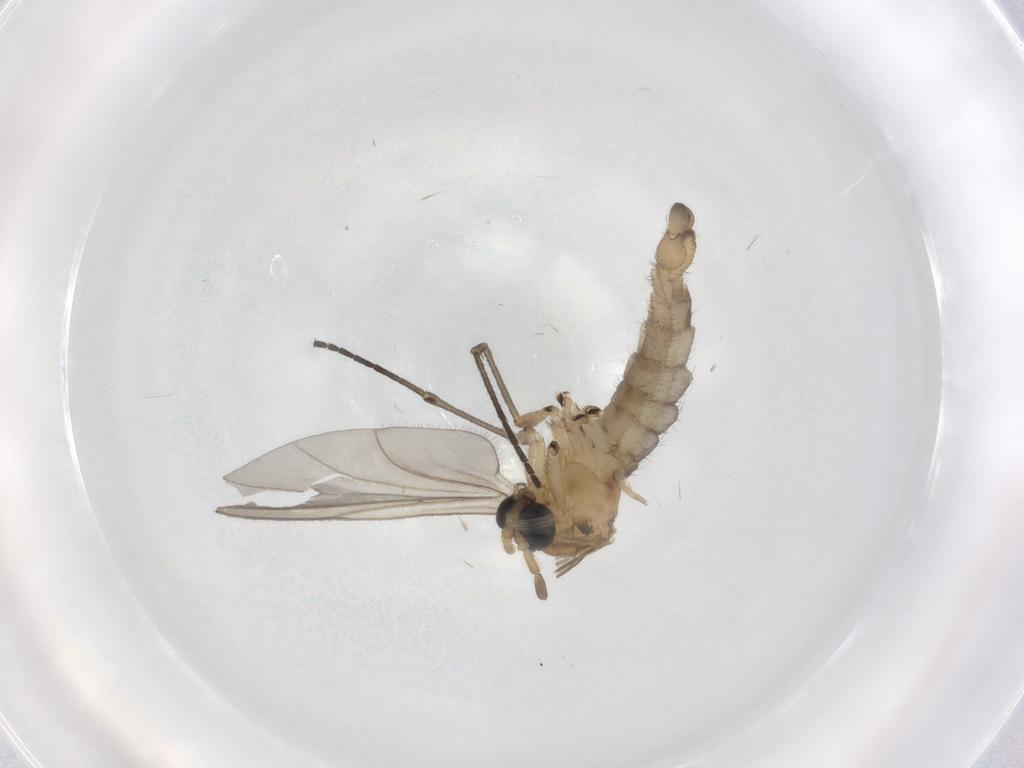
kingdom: Animalia
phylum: Arthropoda
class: Insecta
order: Diptera
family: Sciaridae
